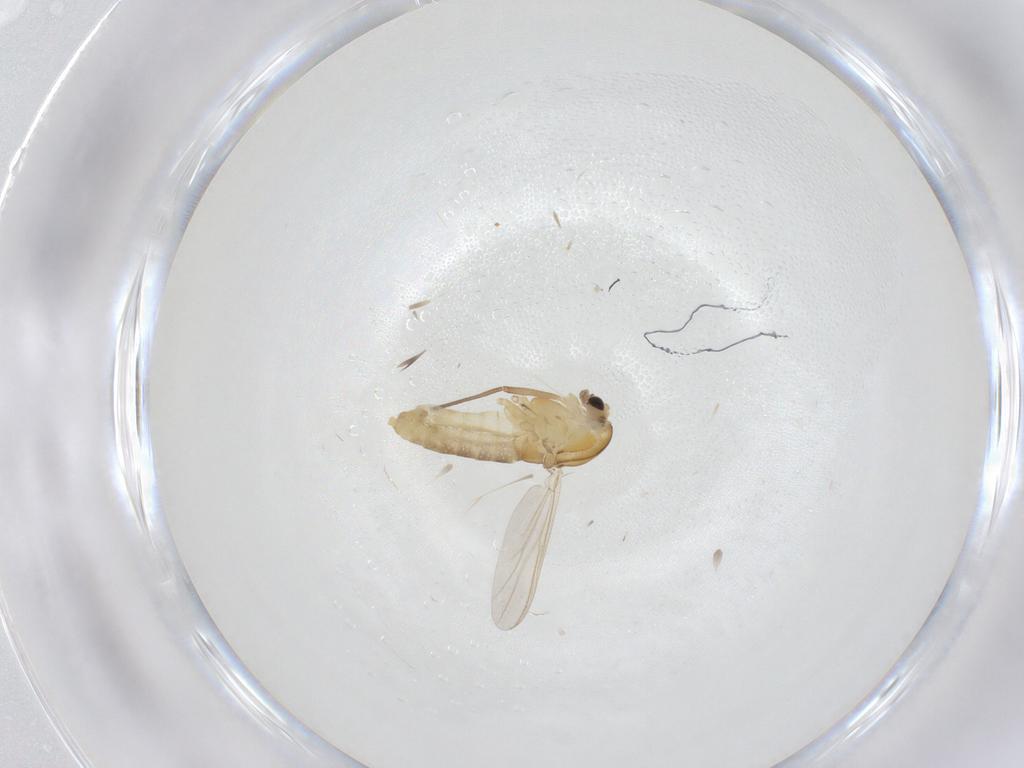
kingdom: Animalia
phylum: Arthropoda
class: Insecta
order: Diptera
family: Chironomidae
